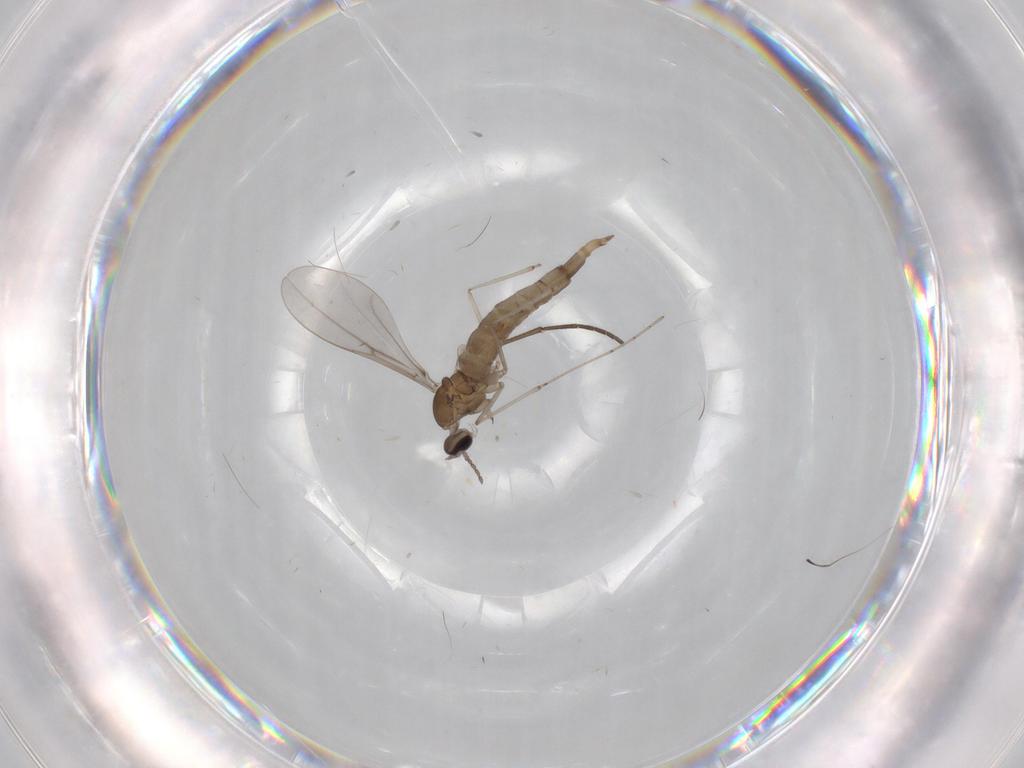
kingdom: Animalia
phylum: Arthropoda
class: Insecta
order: Diptera
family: Cecidomyiidae
